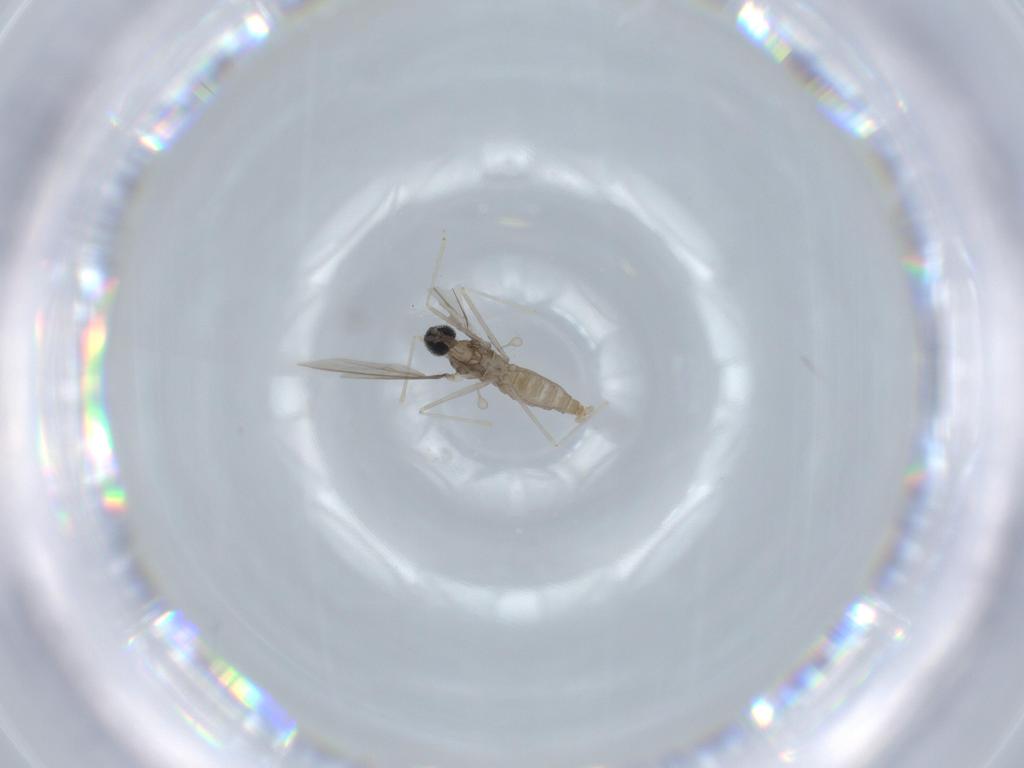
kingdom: Animalia
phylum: Arthropoda
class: Insecta
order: Diptera
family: Cecidomyiidae
